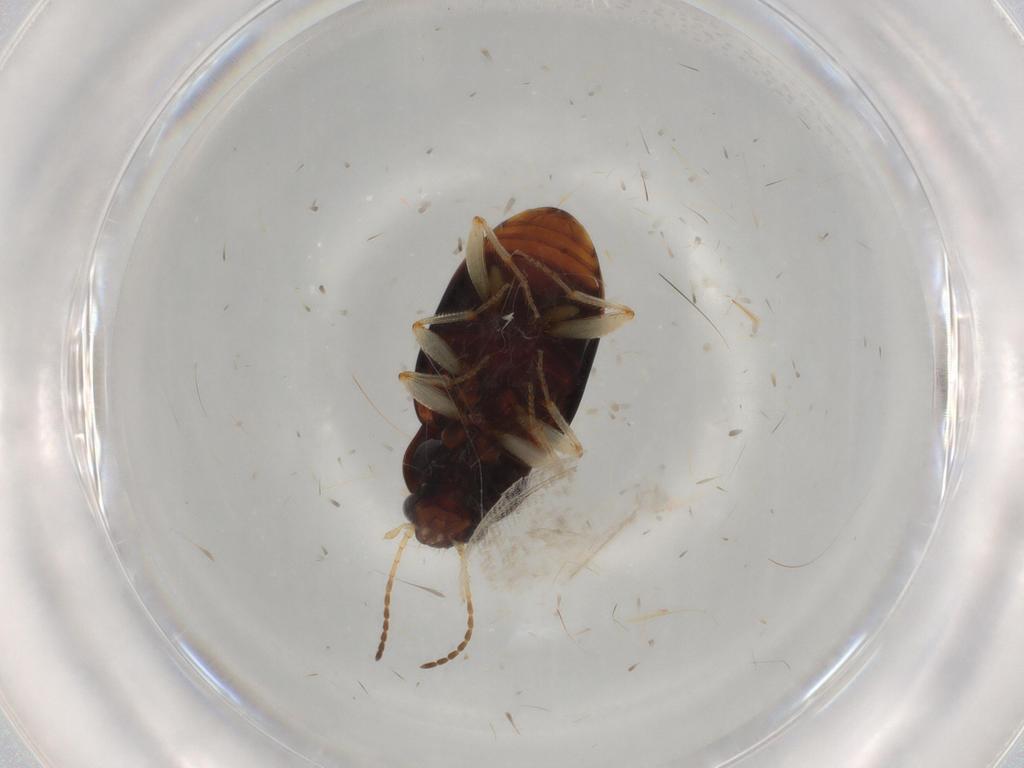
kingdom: Animalia
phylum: Arthropoda
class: Insecta
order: Coleoptera
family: Carabidae
